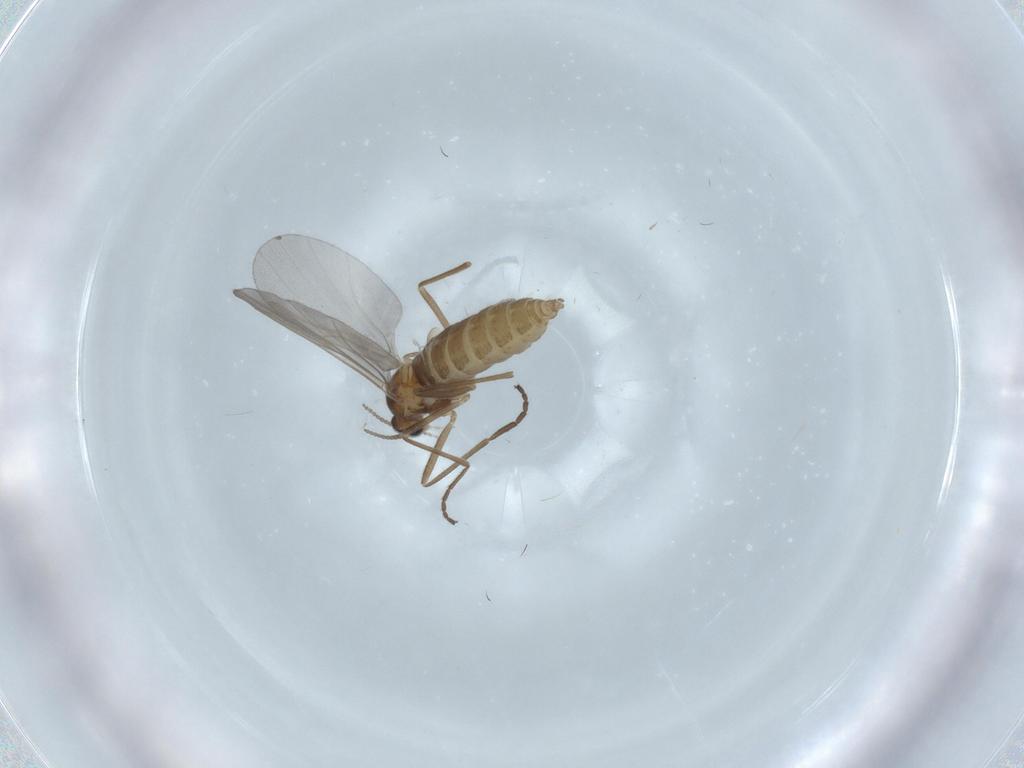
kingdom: Animalia
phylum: Arthropoda
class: Insecta
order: Diptera
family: Cecidomyiidae
